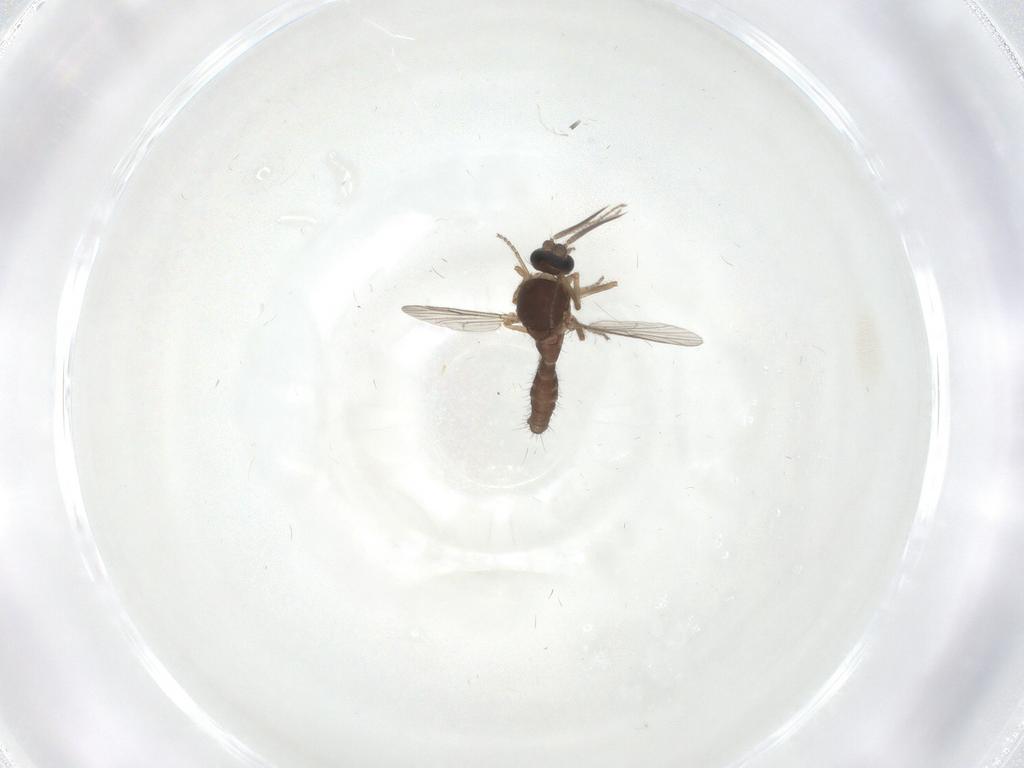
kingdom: Animalia
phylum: Arthropoda
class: Insecta
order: Diptera
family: Ceratopogonidae
